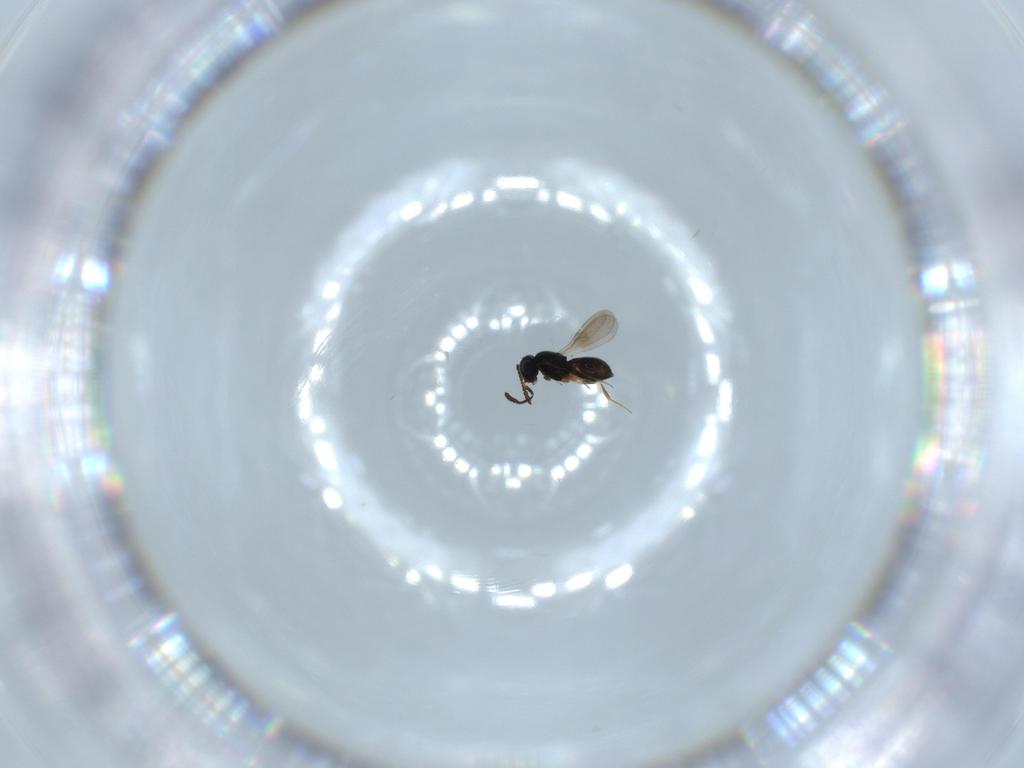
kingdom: Animalia
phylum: Arthropoda
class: Insecta
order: Hymenoptera
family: Scelionidae
